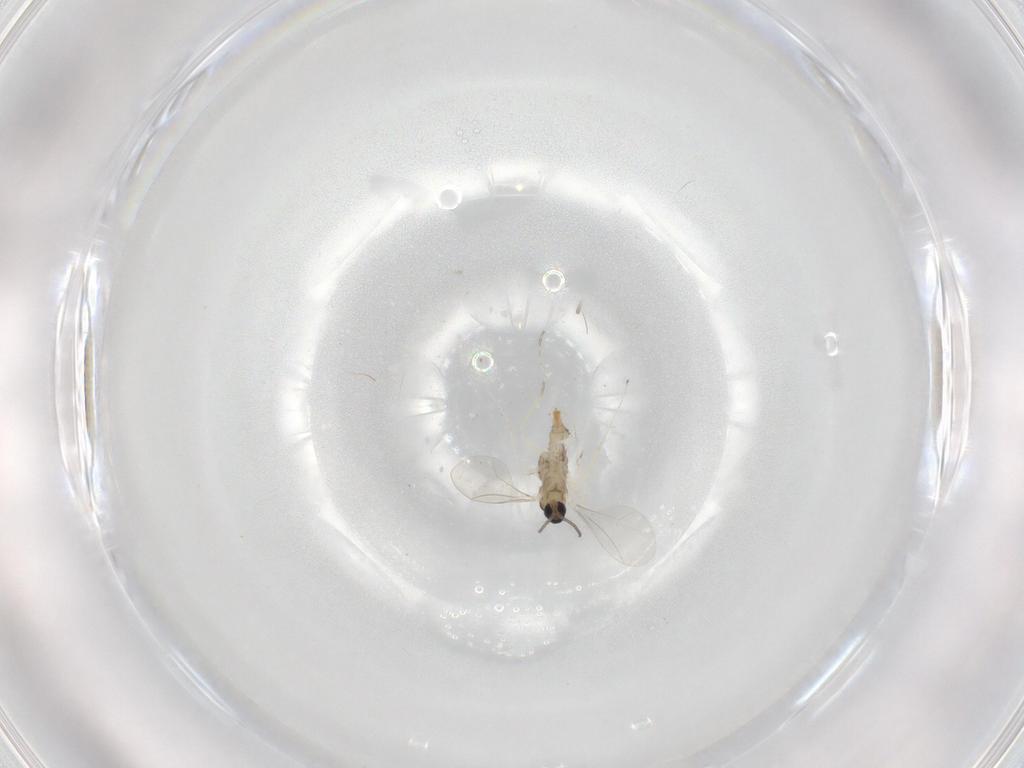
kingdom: Animalia
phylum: Arthropoda
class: Insecta
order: Diptera
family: Cecidomyiidae
